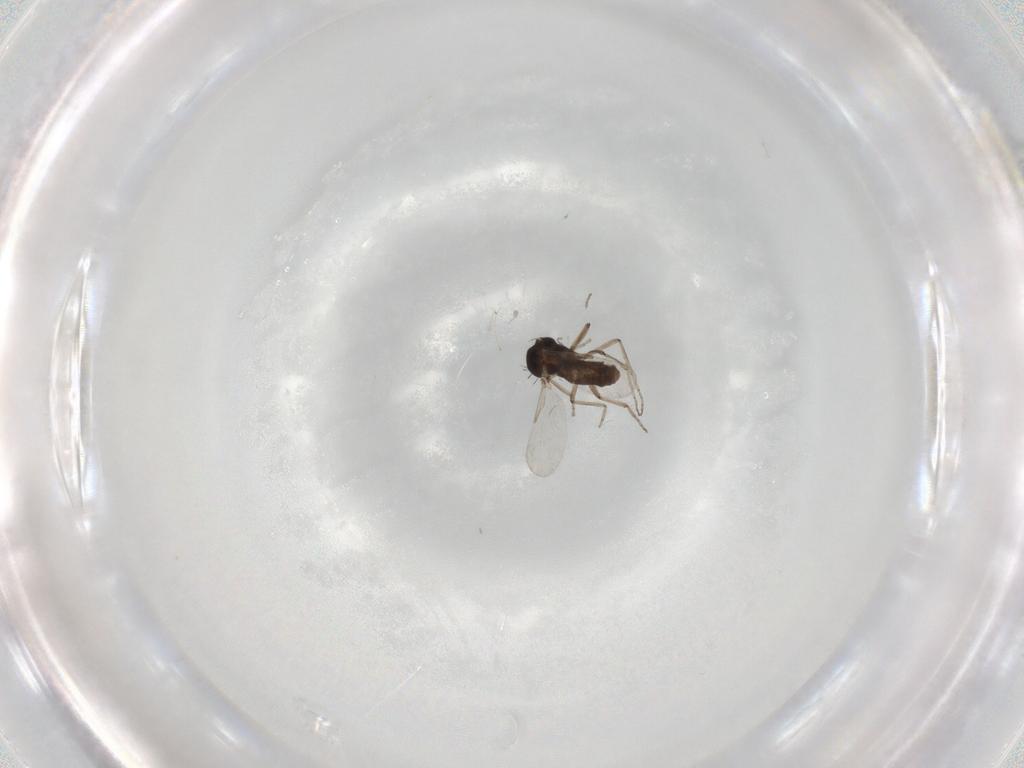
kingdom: Animalia
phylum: Arthropoda
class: Insecta
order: Diptera
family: Ceratopogonidae
